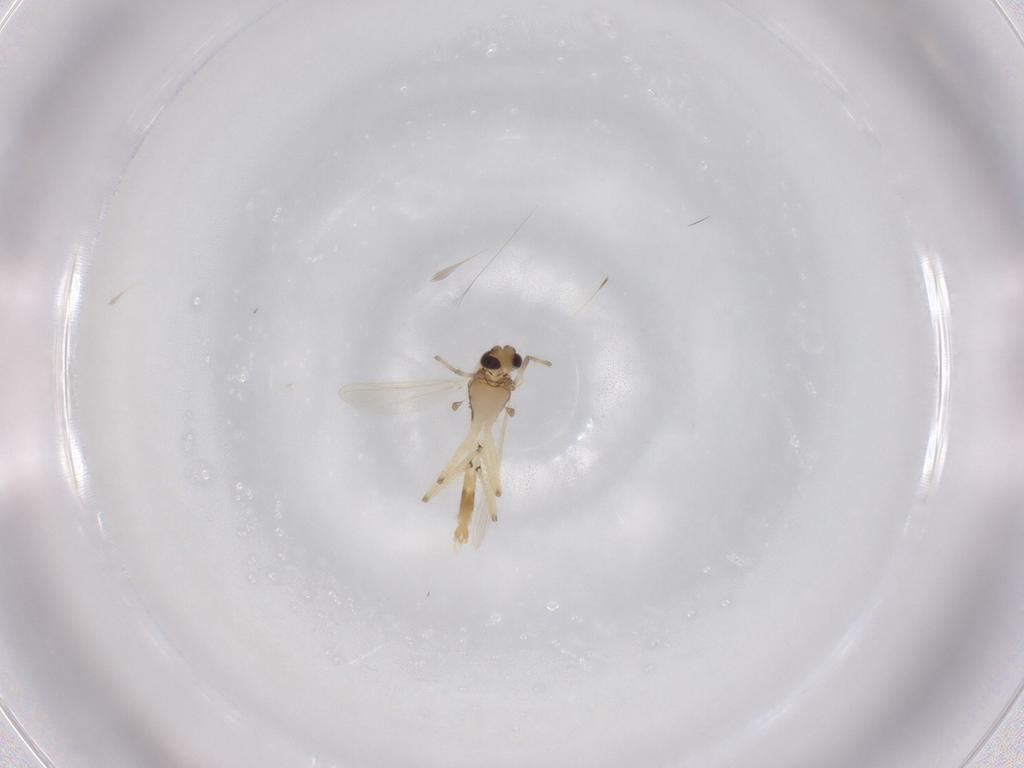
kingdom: Animalia
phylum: Arthropoda
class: Insecta
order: Diptera
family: Chironomidae
